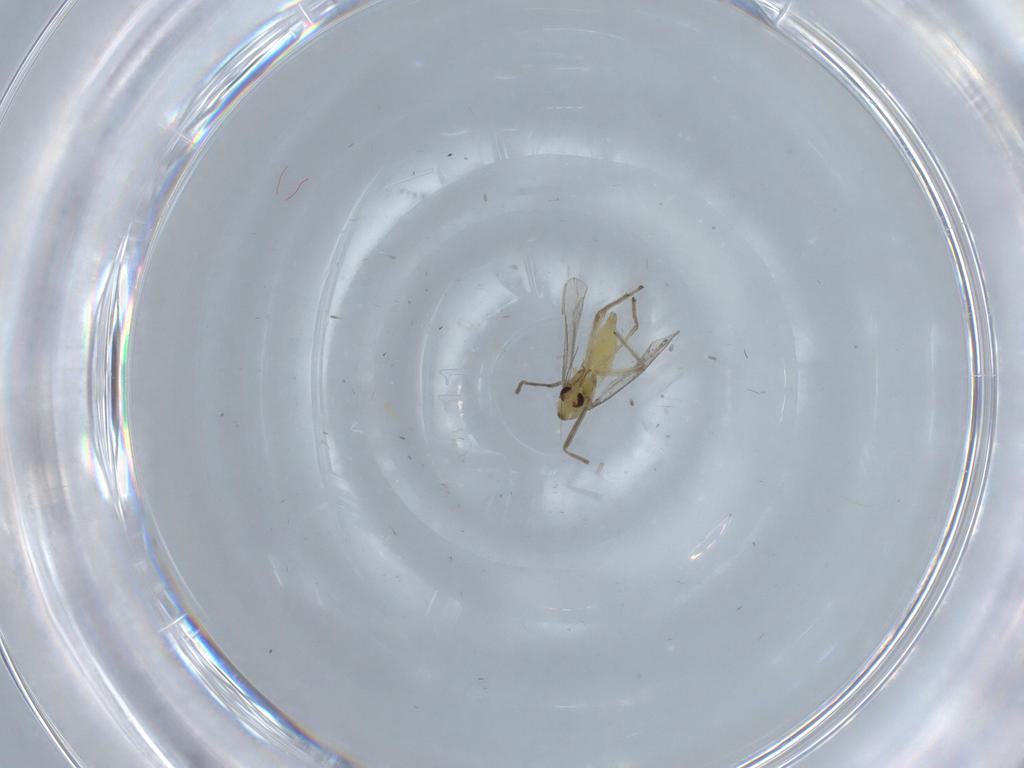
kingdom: Animalia
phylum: Arthropoda
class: Insecta
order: Diptera
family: Chironomidae
